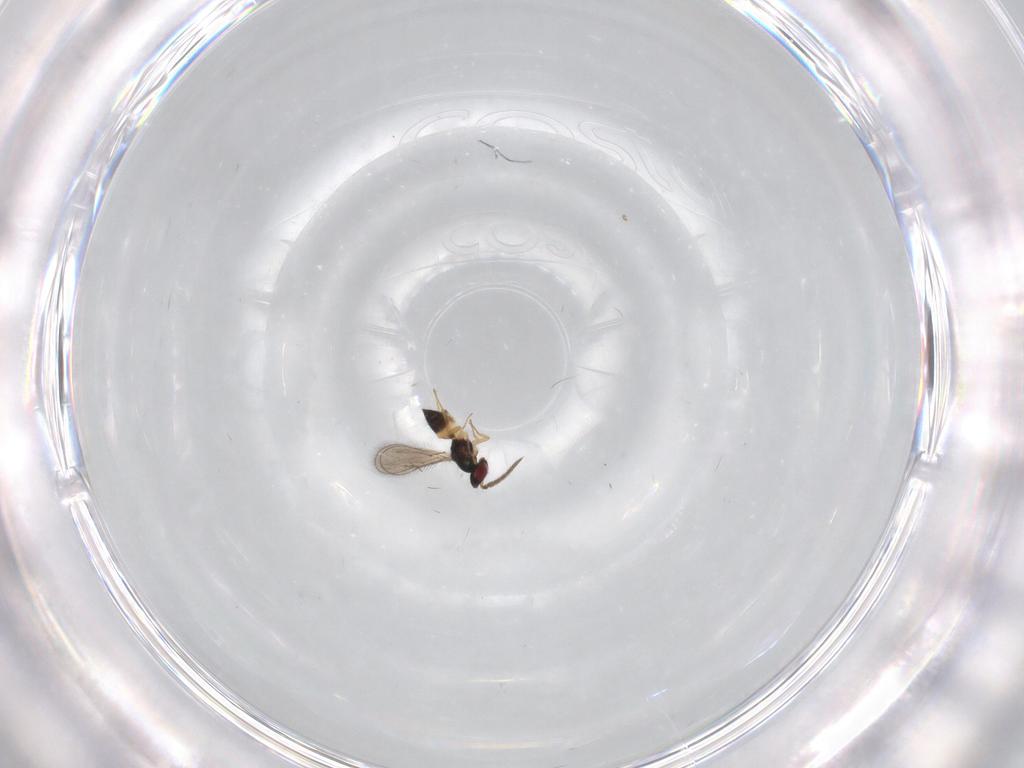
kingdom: Animalia
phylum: Arthropoda
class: Insecta
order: Hymenoptera
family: Eulophidae
